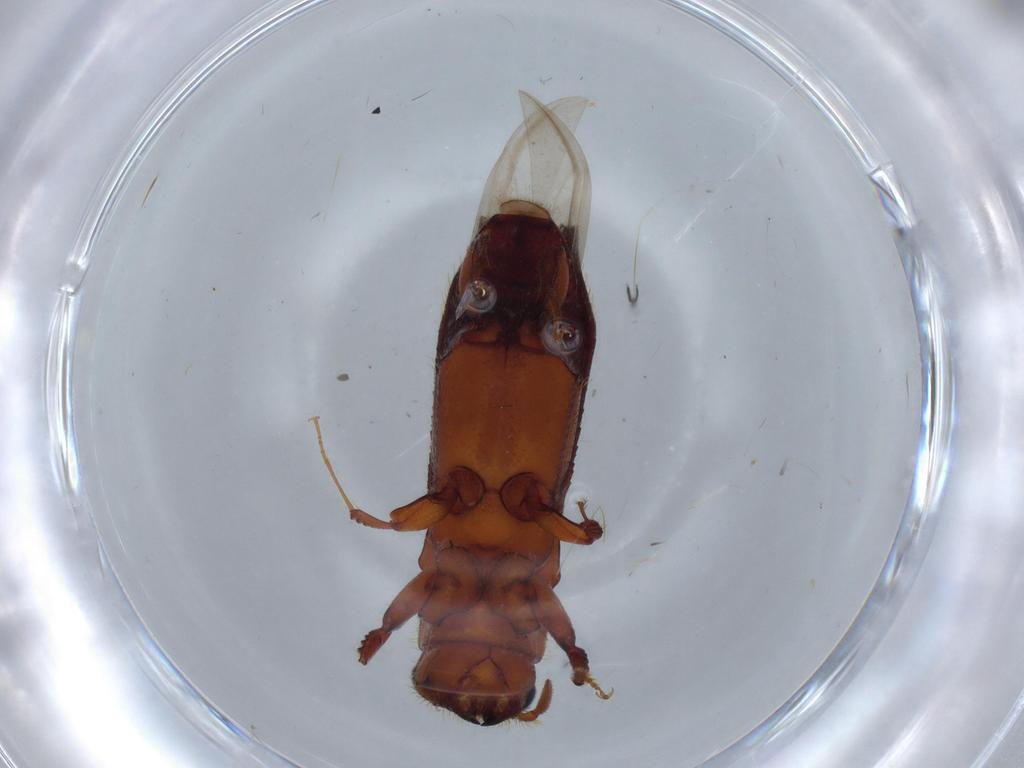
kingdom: Animalia
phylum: Arthropoda
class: Insecta
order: Coleoptera
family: Curculionidae
